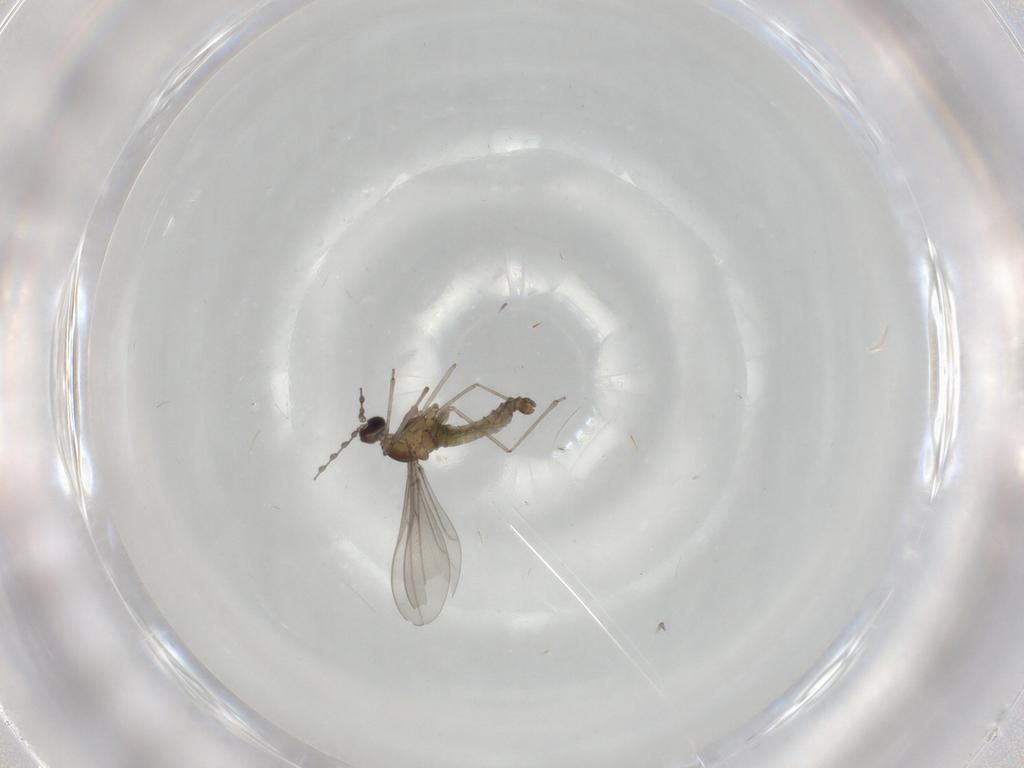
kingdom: Animalia
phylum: Arthropoda
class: Insecta
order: Diptera
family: Cecidomyiidae
